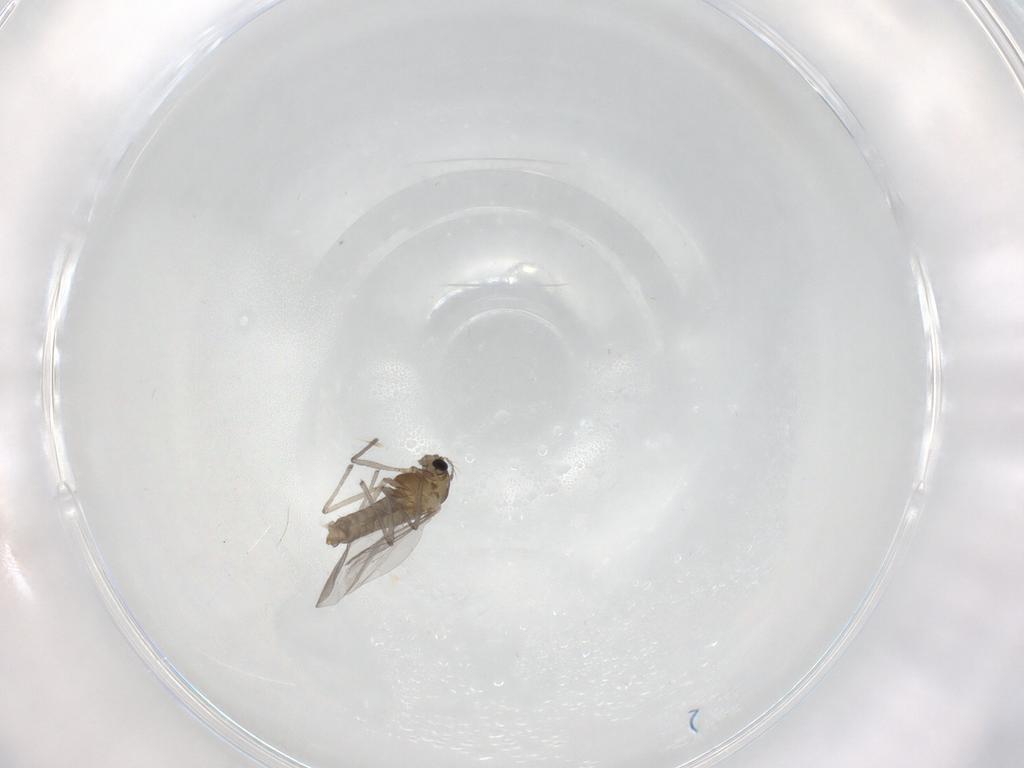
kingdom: Animalia
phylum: Arthropoda
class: Insecta
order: Diptera
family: Chironomidae
